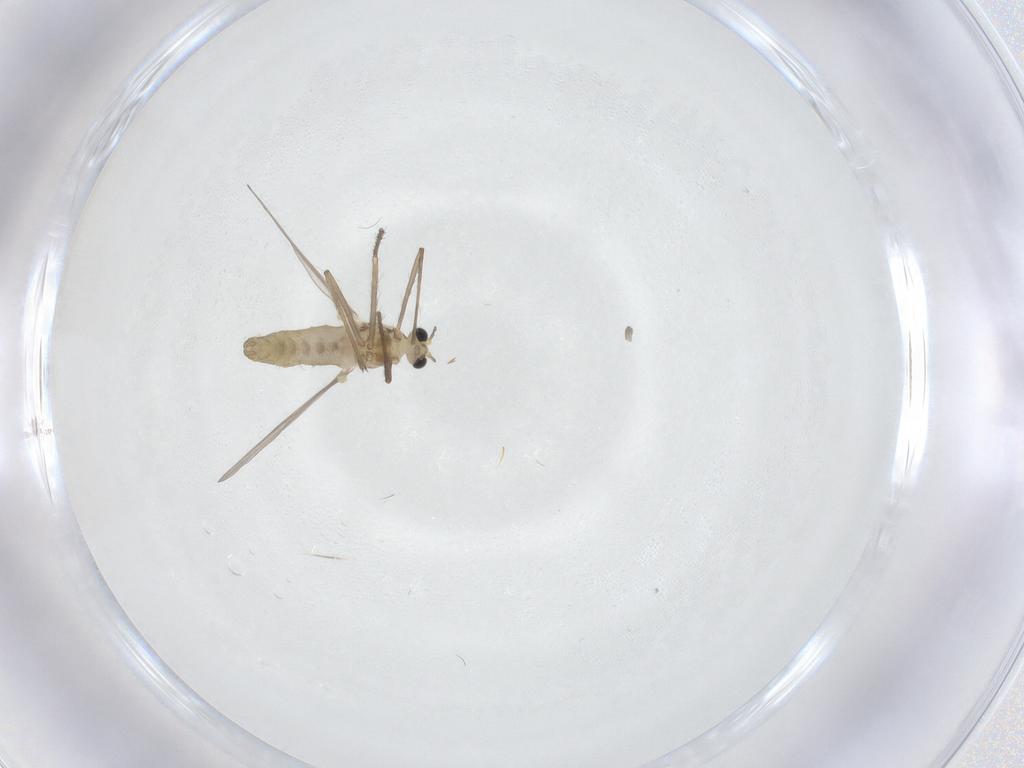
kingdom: Animalia
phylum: Arthropoda
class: Insecta
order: Diptera
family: Chironomidae
